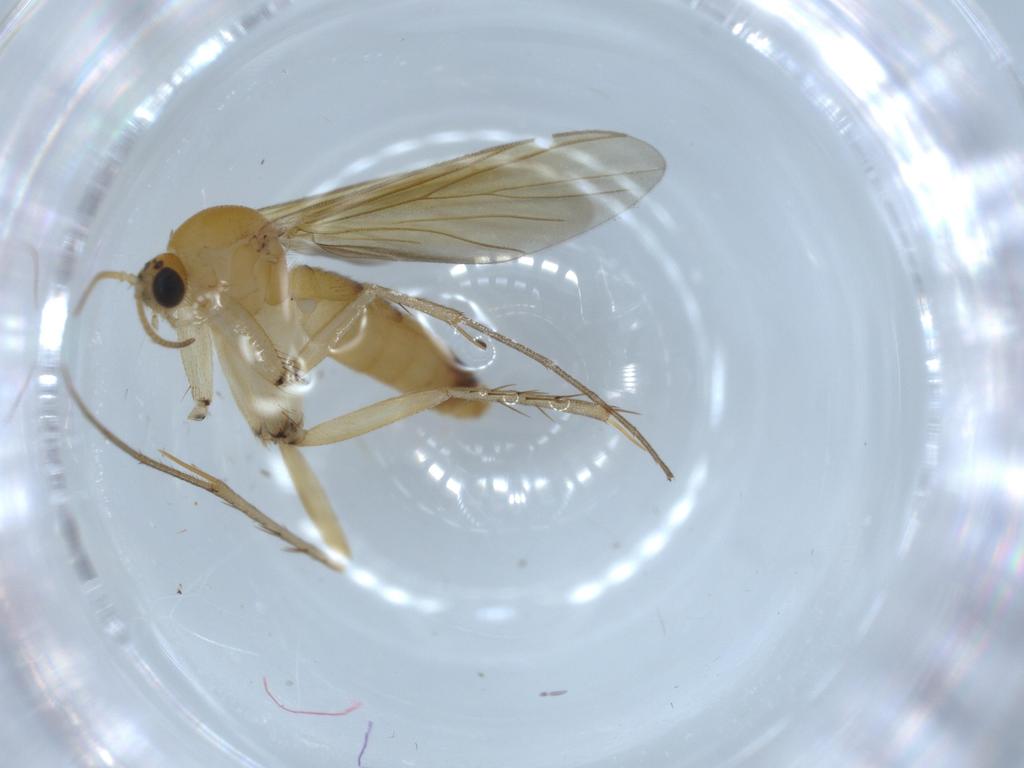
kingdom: Animalia
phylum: Arthropoda
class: Insecta
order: Diptera
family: Mycetophilidae
